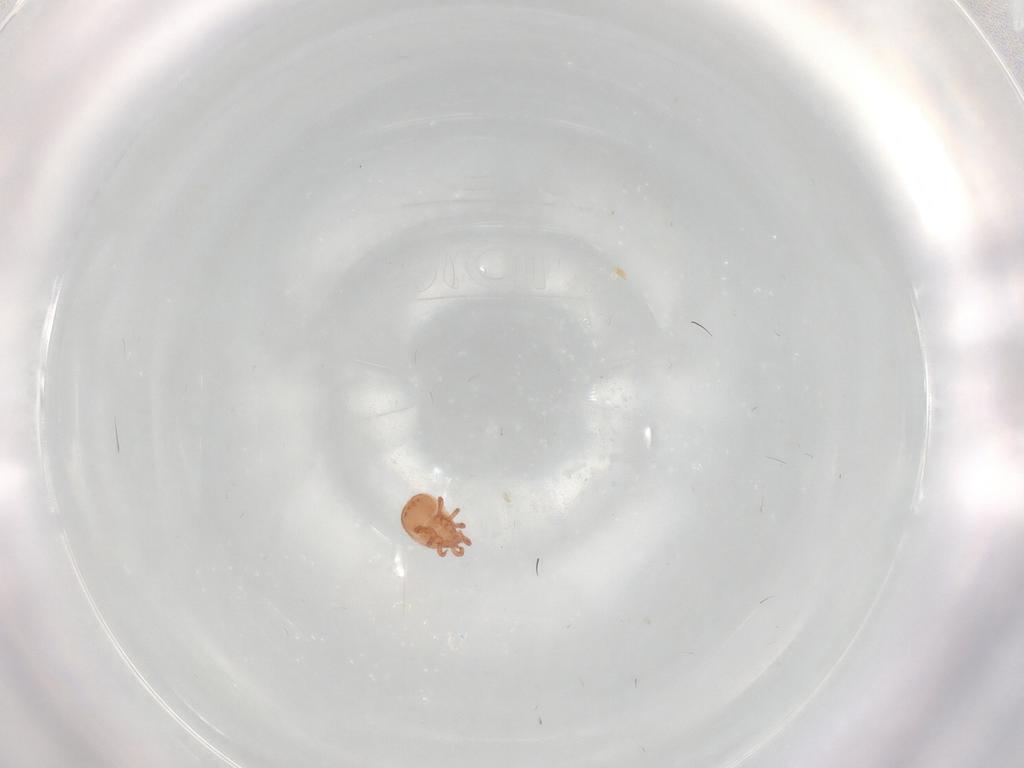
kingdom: Animalia
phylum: Arthropoda
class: Arachnida
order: Mesostigmata
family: Zerconidae
